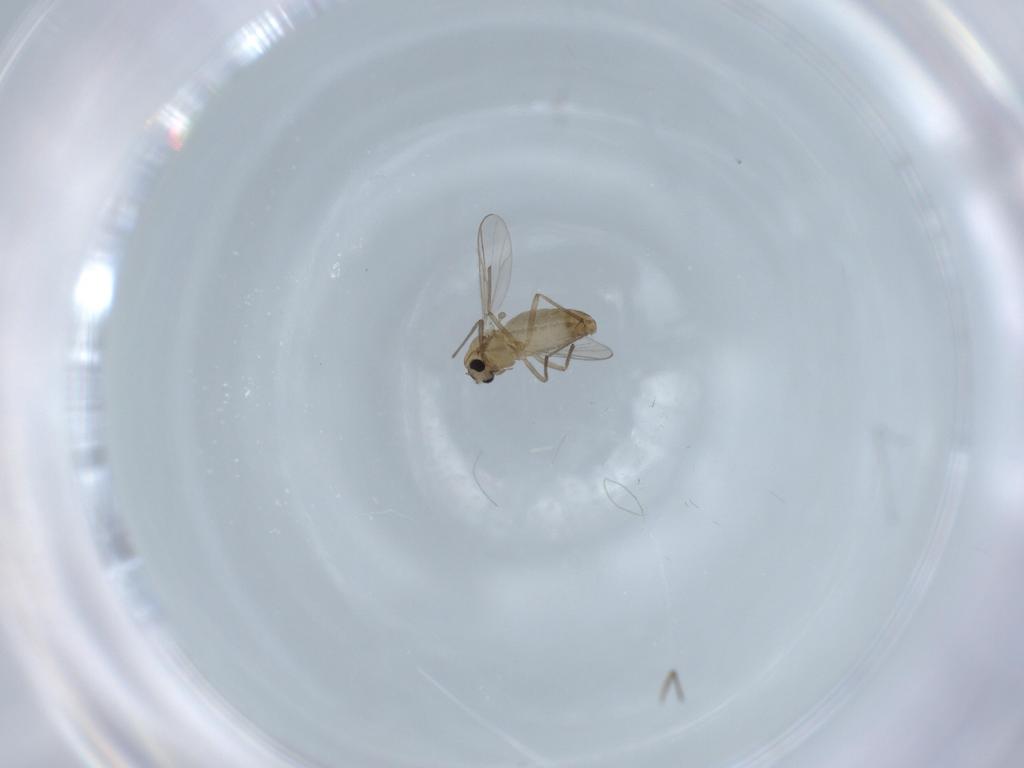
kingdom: Animalia
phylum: Arthropoda
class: Insecta
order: Diptera
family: Chironomidae
